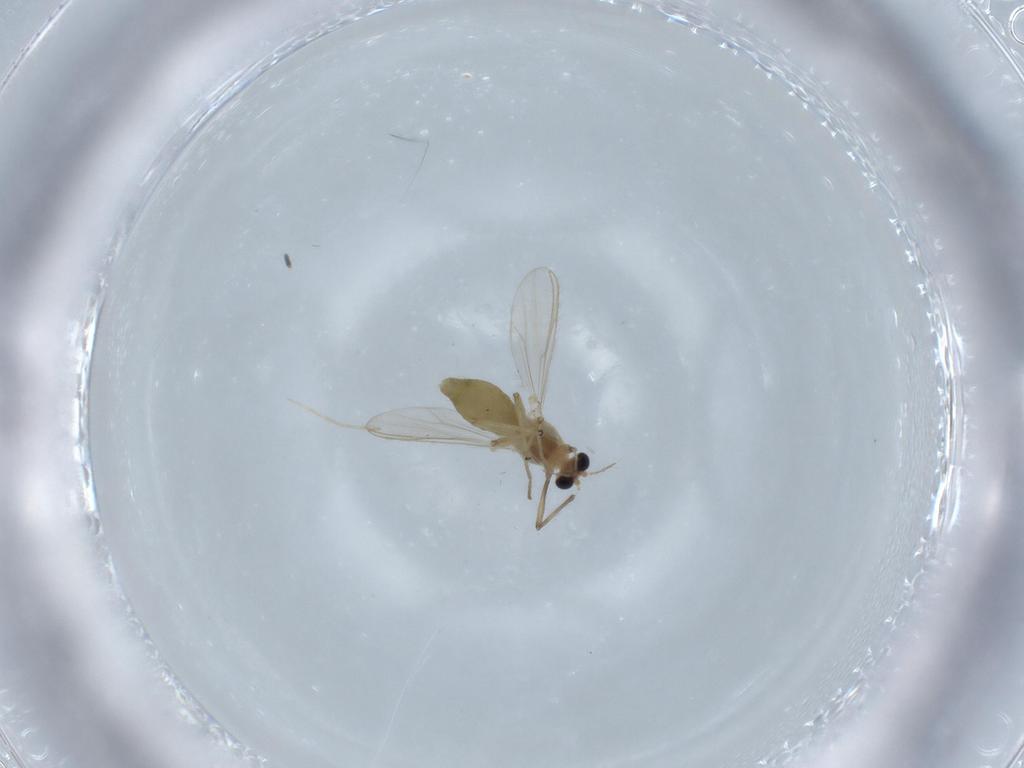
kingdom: Animalia
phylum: Arthropoda
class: Insecta
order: Diptera
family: Chironomidae
